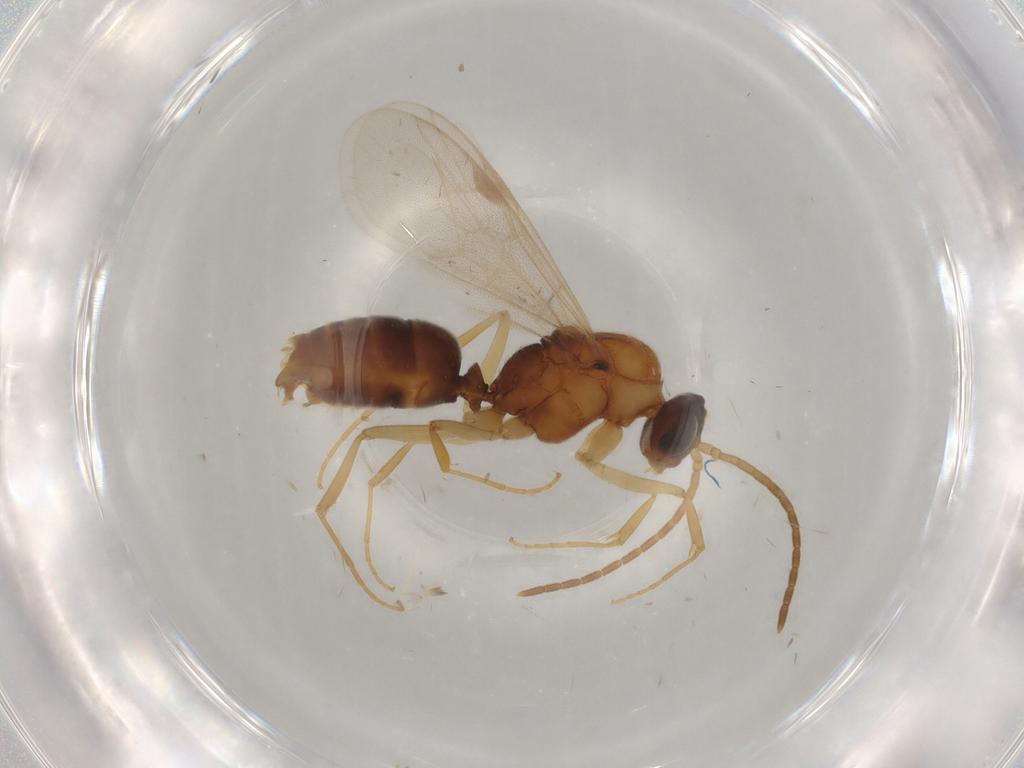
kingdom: Animalia
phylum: Arthropoda
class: Insecta
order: Hymenoptera
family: Formicidae
